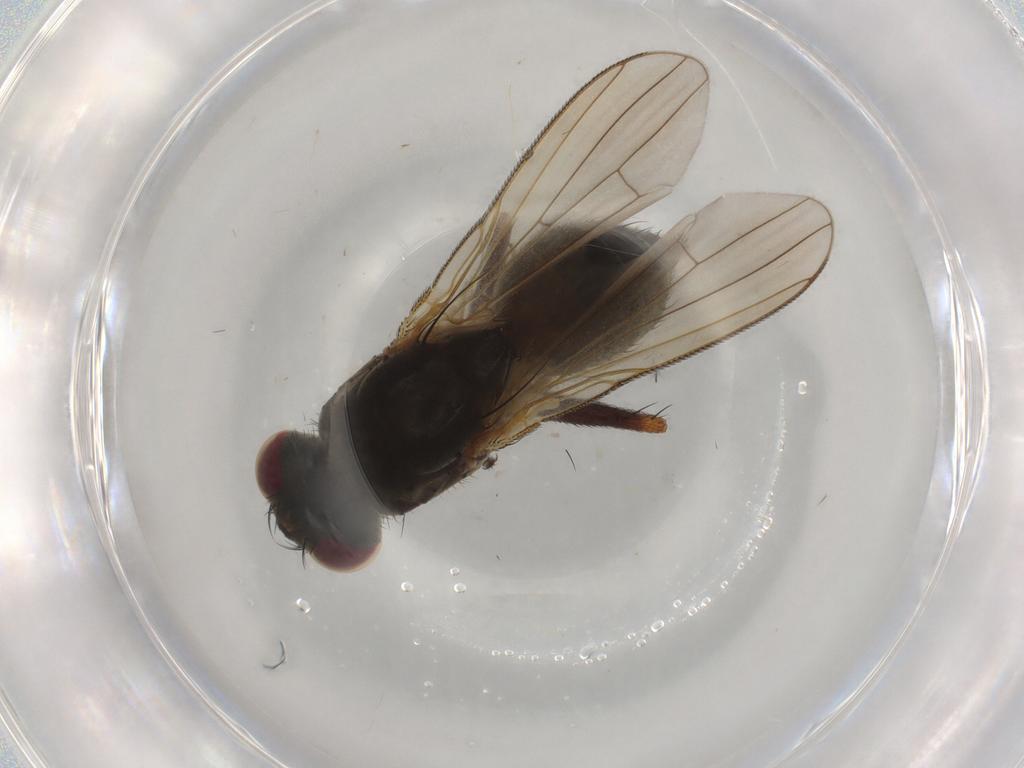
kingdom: Animalia
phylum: Arthropoda
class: Insecta
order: Diptera
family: Muscidae
